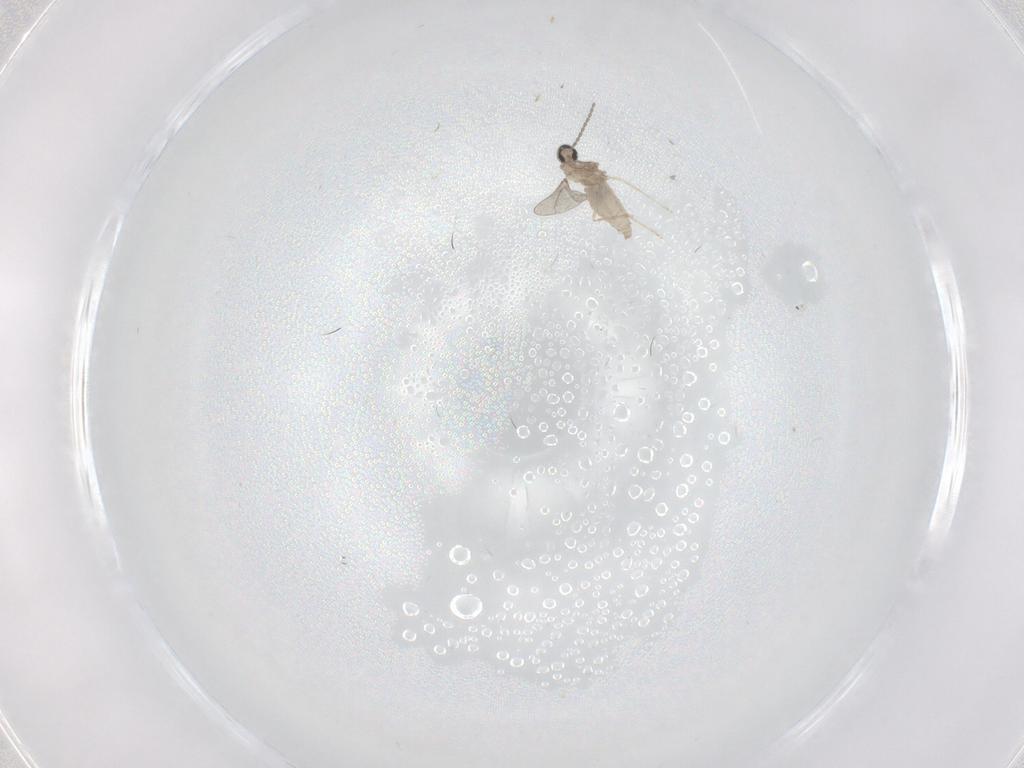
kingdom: Animalia
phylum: Arthropoda
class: Insecta
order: Diptera
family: Cecidomyiidae
